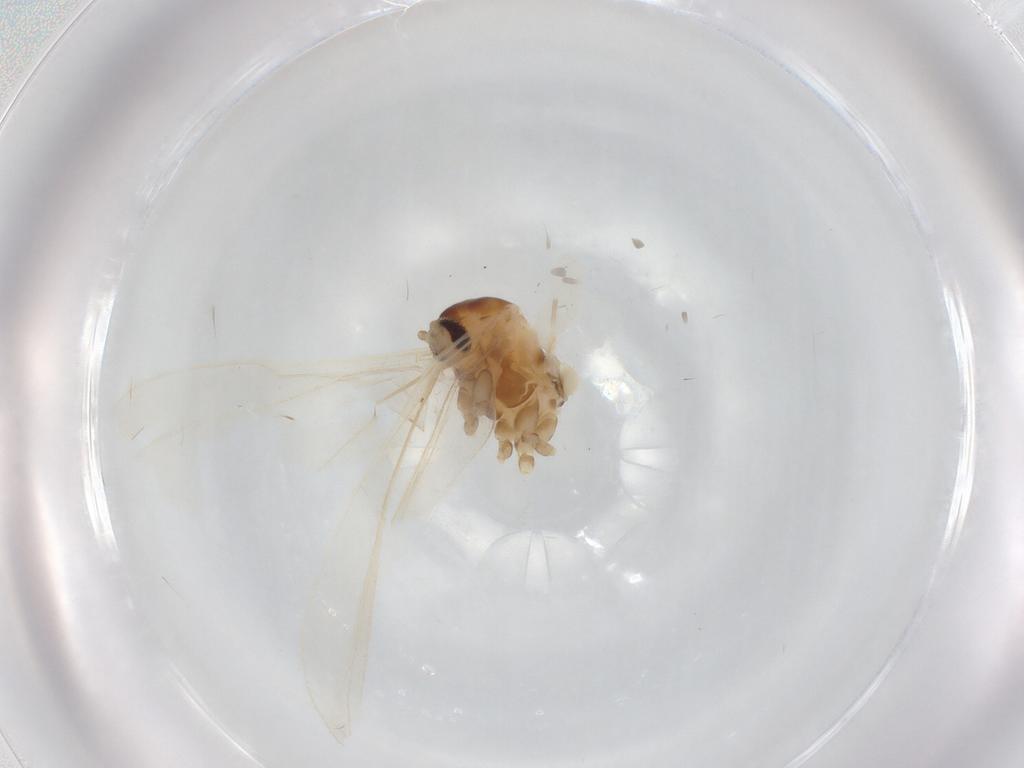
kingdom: Animalia
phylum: Arthropoda
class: Insecta
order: Diptera
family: Cecidomyiidae
